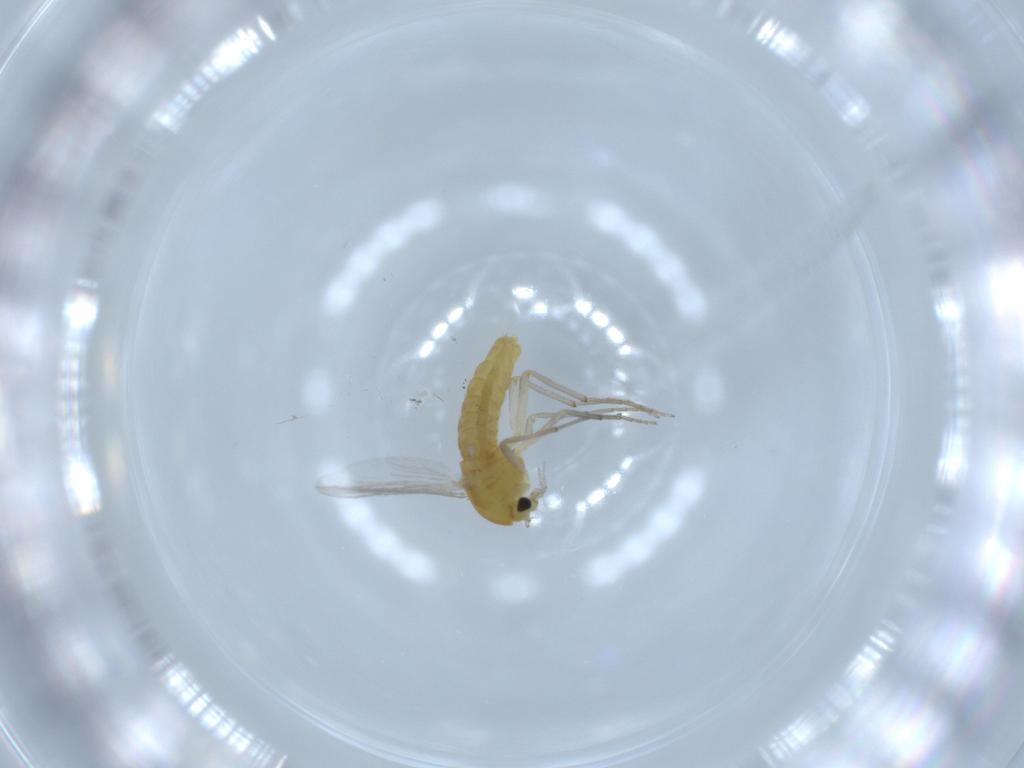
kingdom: Animalia
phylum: Arthropoda
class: Insecta
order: Diptera
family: Chironomidae
